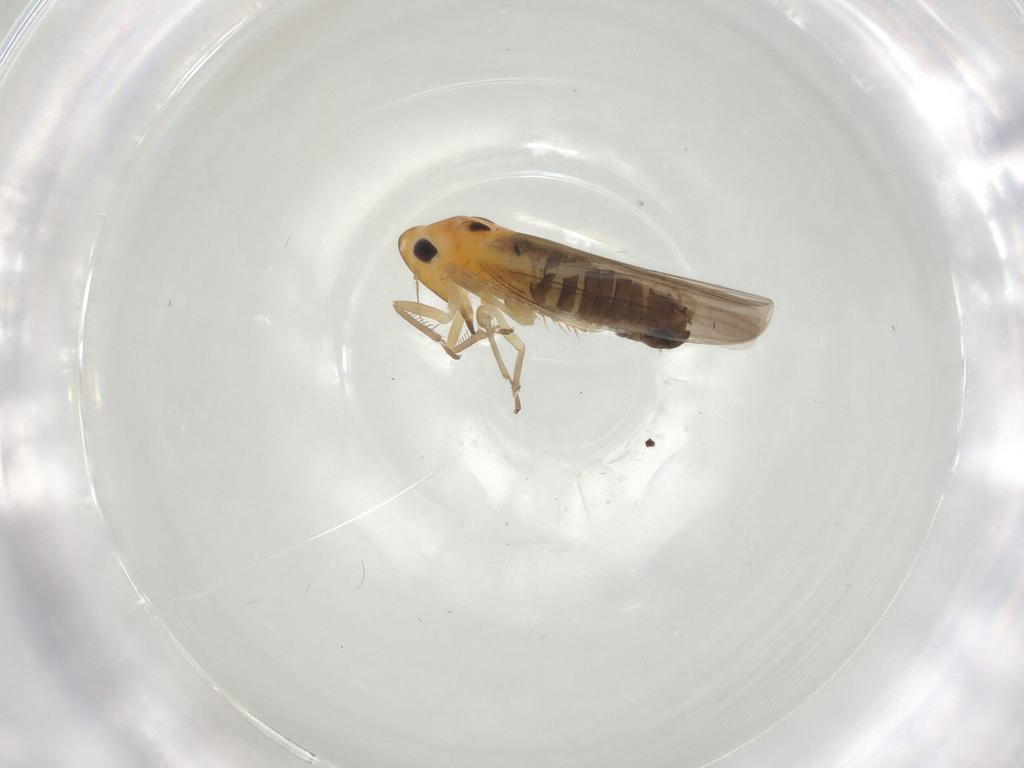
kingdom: Animalia
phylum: Arthropoda
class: Insecta
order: Hemiptera
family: Cicadellidae
